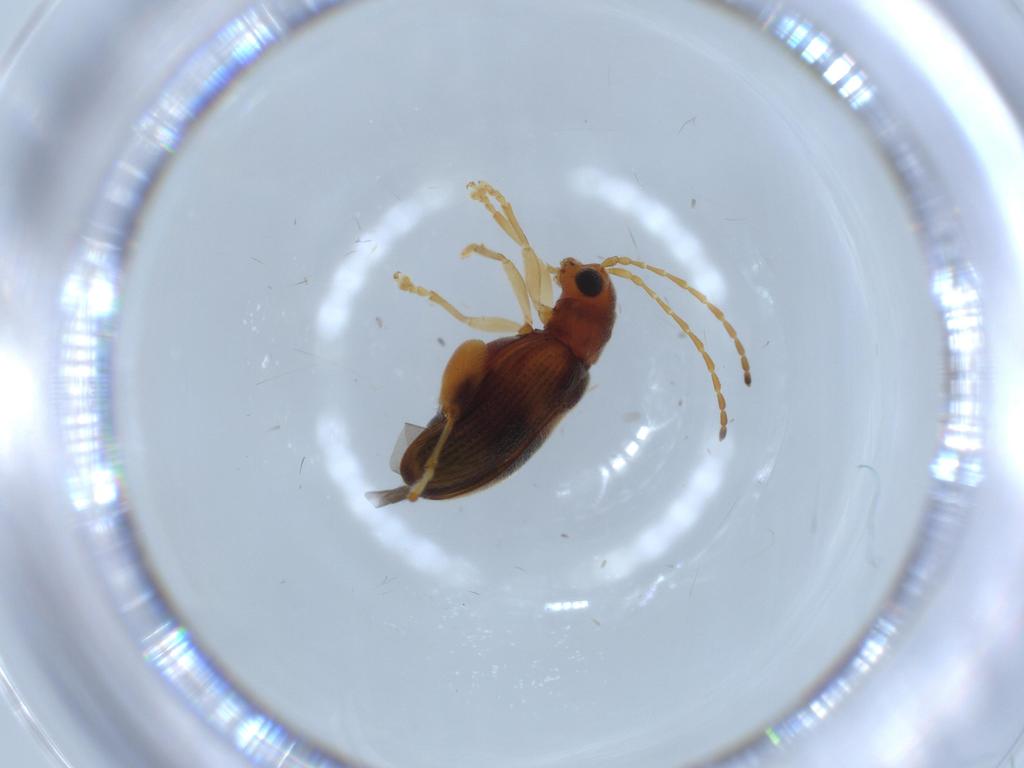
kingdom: Animalia
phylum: Arthropoda
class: Insecta
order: Coleoptera
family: Chrysomelidae
